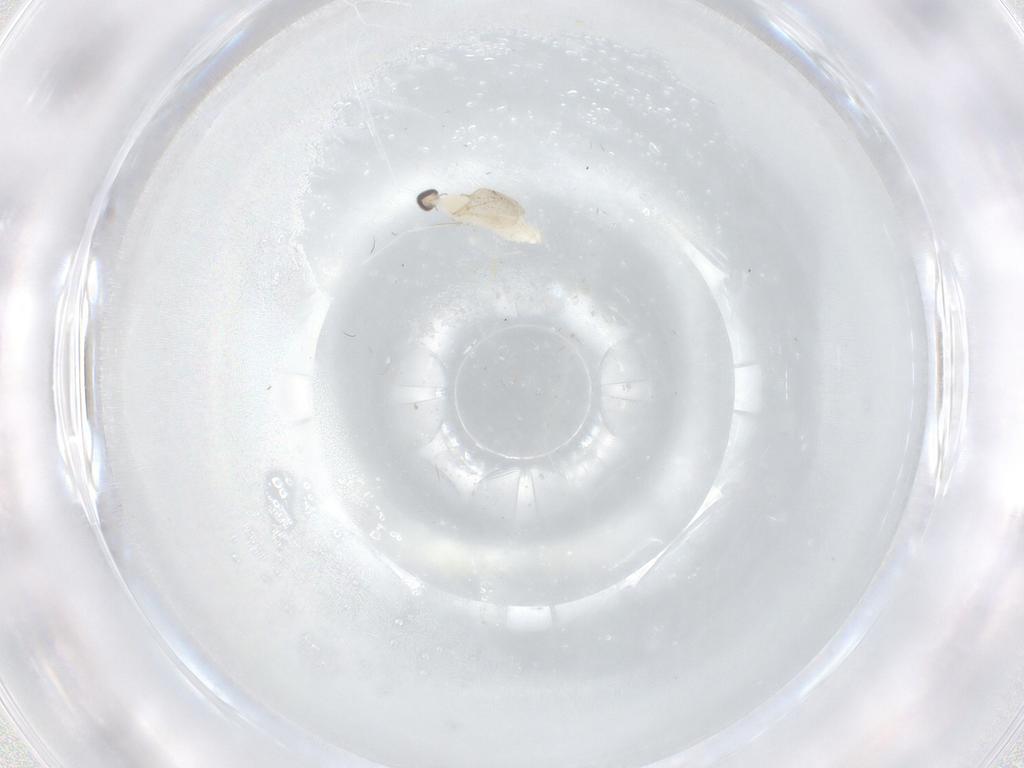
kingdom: Animalia
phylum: Arthropoda
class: Insecta
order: Diptera
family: Cecidomyiidae
